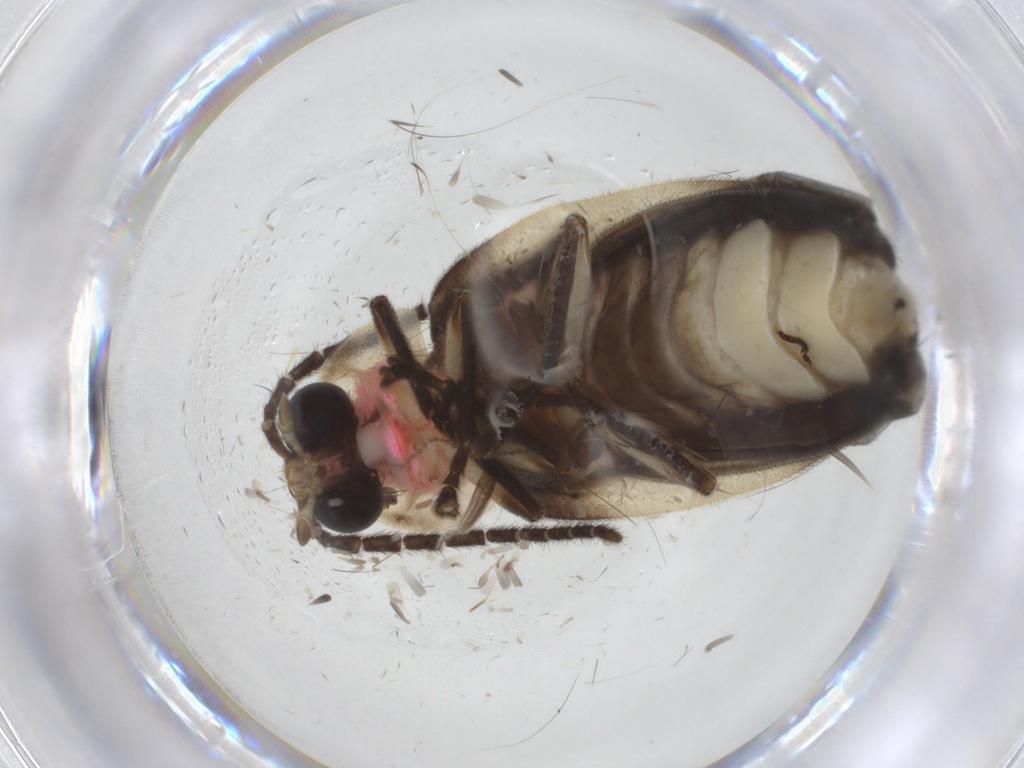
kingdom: Animalia
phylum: Arthropoda
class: Insecta
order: Coleoptera
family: Lampyridae
